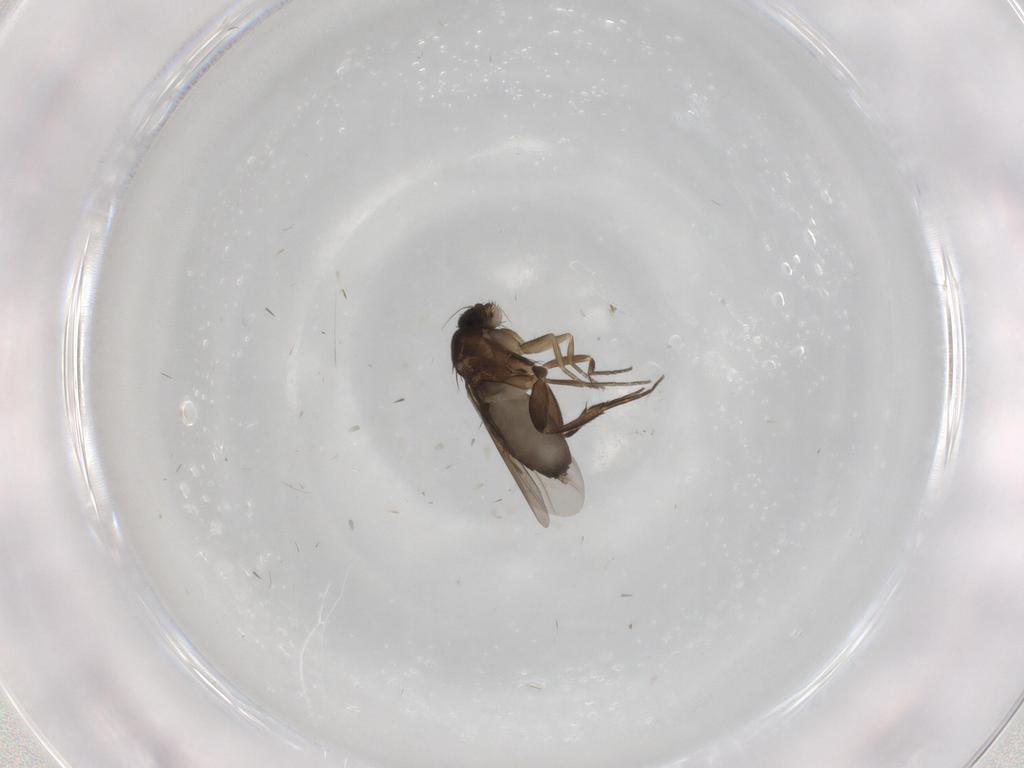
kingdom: Animalia
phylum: Arthropoda
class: Insecta
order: Diptera
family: Phoridae
